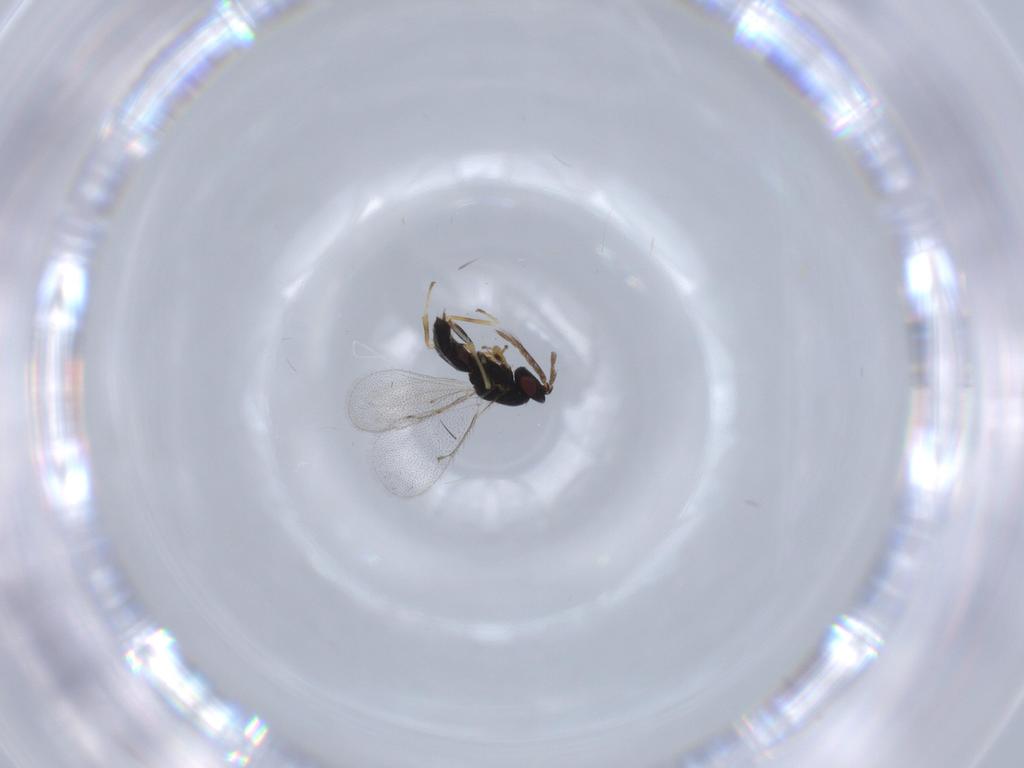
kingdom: Animalia
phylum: Arthropoda
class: Insecta
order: Hymenoptera
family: Eulophidae
